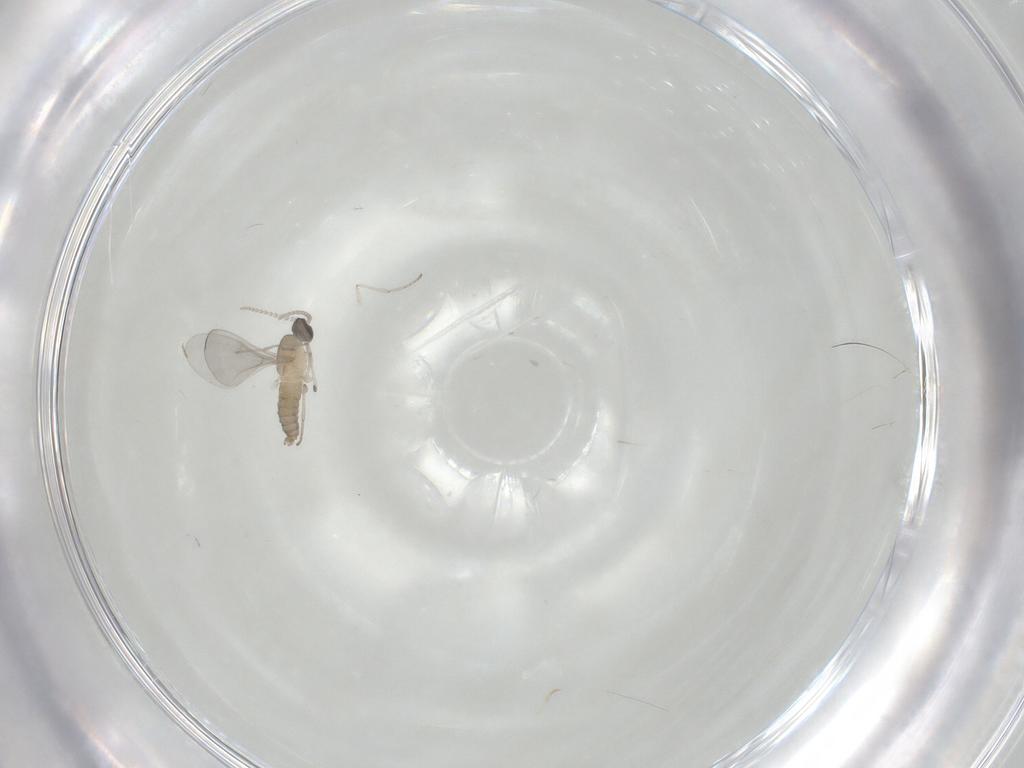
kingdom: Animalia
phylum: Arthropoda
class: Insecta
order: Diptera
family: Cecidomyiidae
